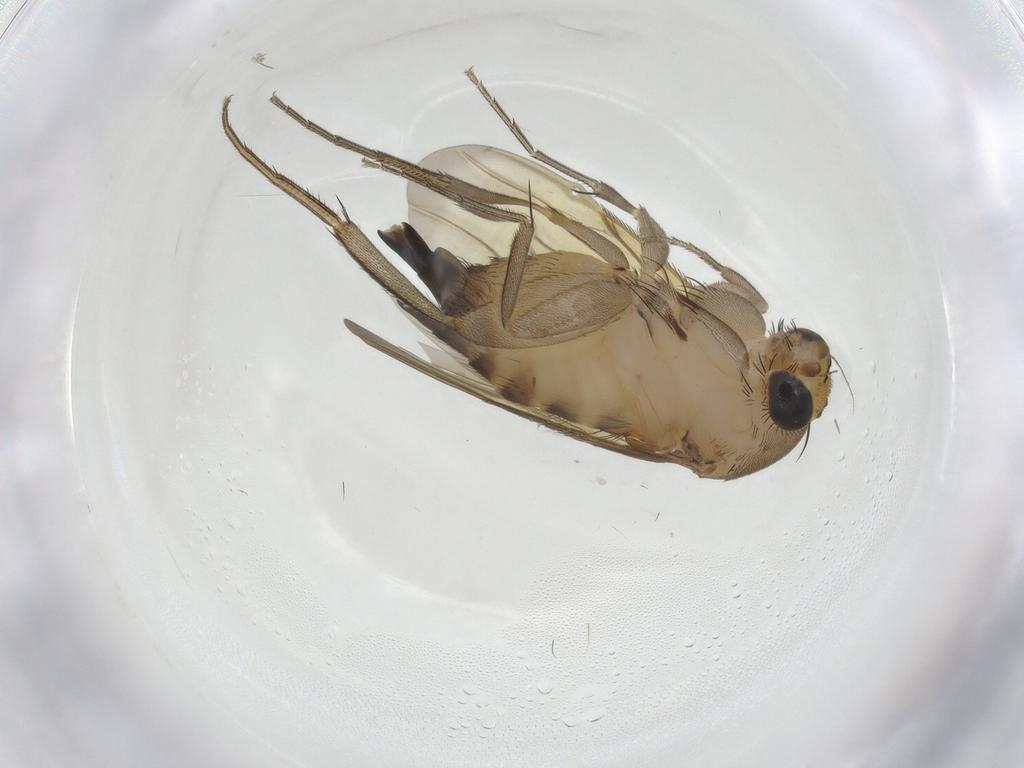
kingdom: Animalia
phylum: Arthropoda
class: Insecta
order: Diptera
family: Phoridae
